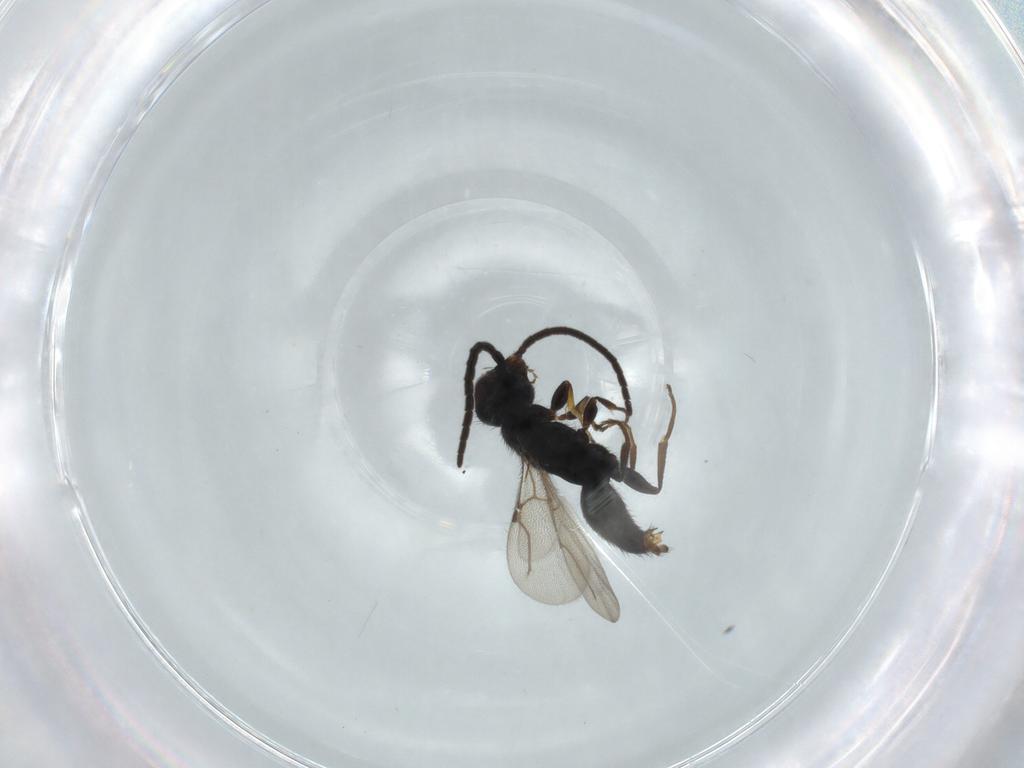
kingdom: Animalia
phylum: Arthropoda
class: Insecta
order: Hymenoptera
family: Bethylidae
